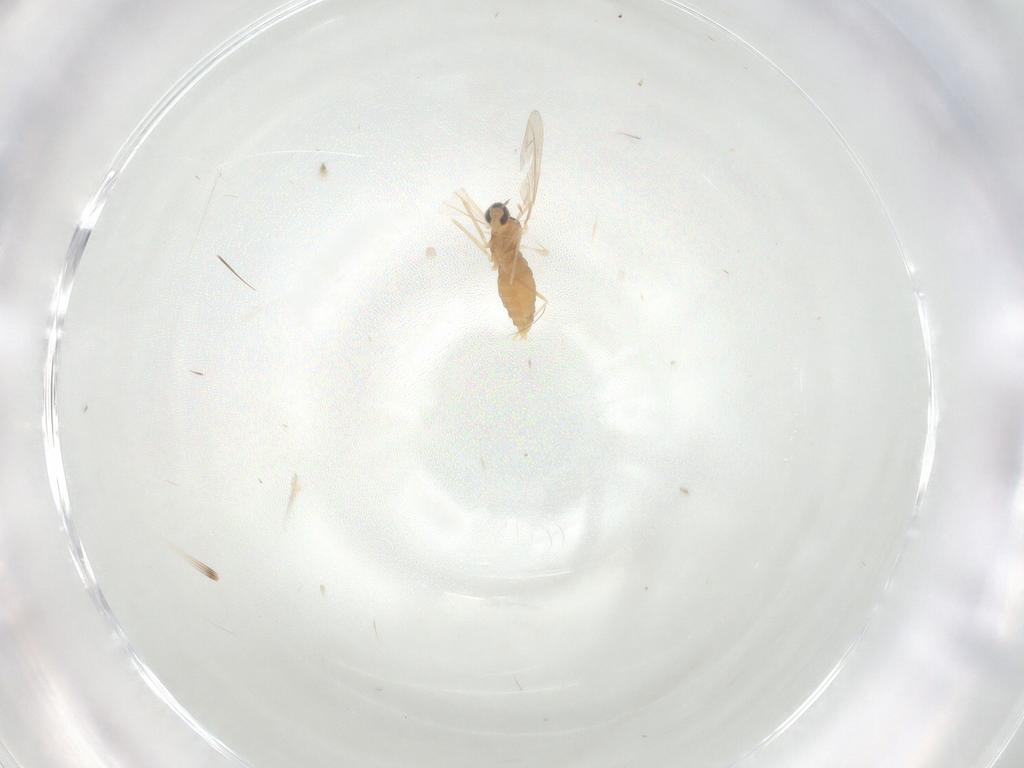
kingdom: Animalia
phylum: Arthropoda
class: Insecta
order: Diptera
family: Cecidomyiidae
